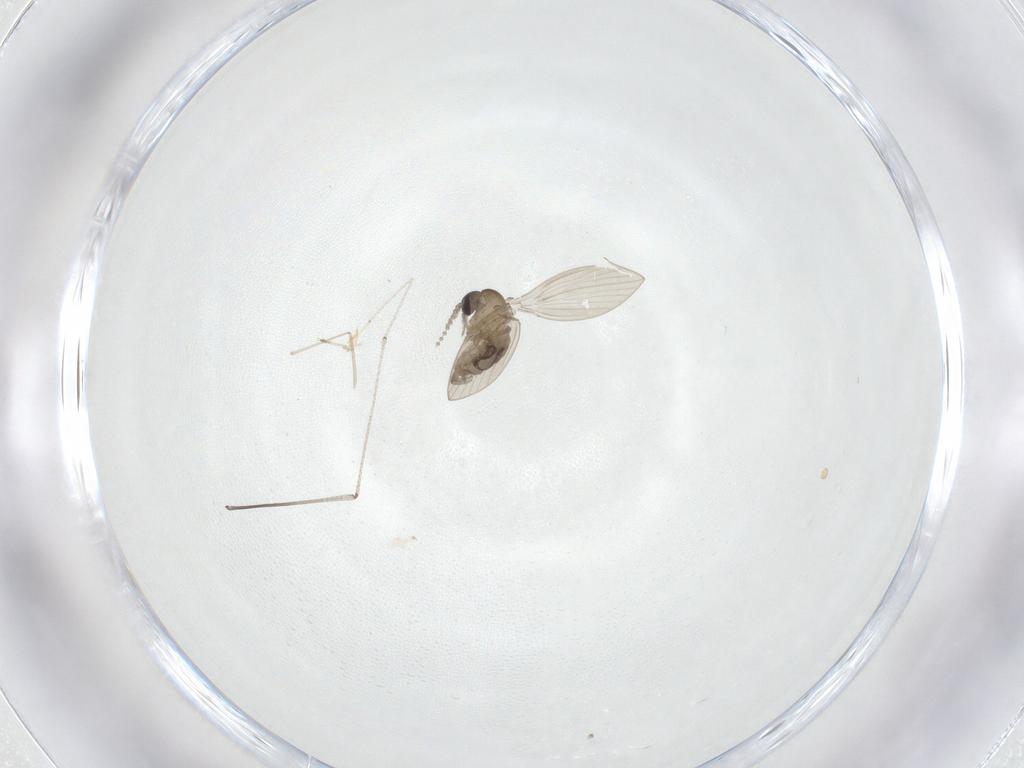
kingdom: Animalia
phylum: Arthropoda
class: Insecta
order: Diptera
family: Psychodidae
